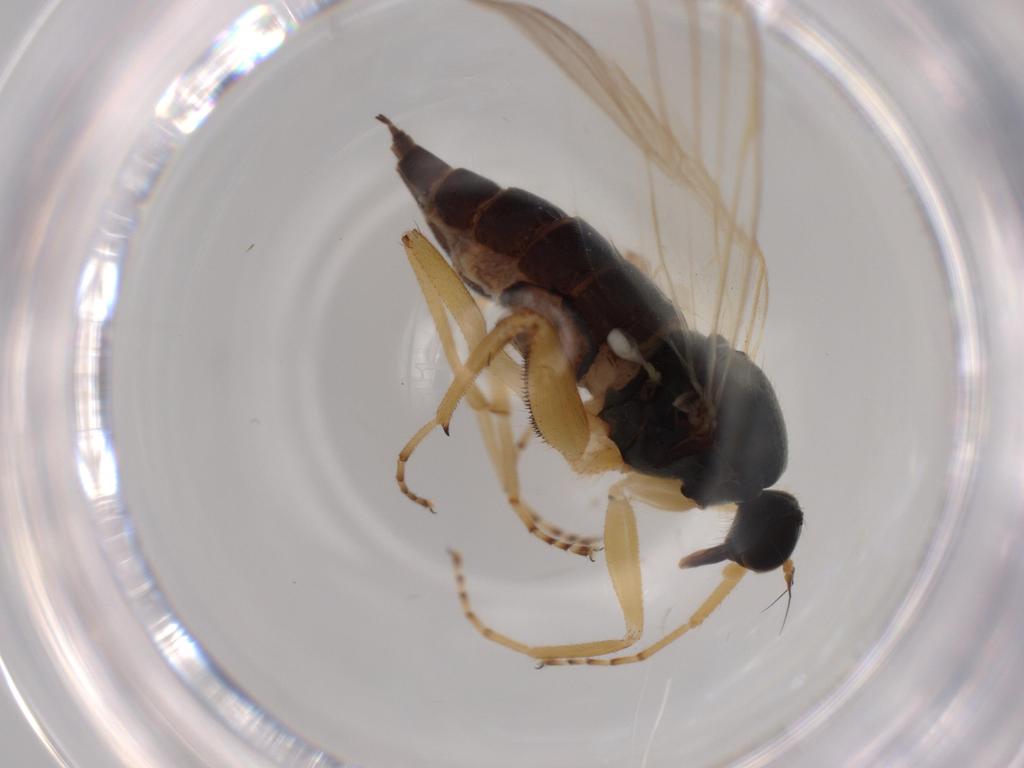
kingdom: Animalia
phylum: Arthropoda
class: Insecta
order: Diptera
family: Hybotidae
